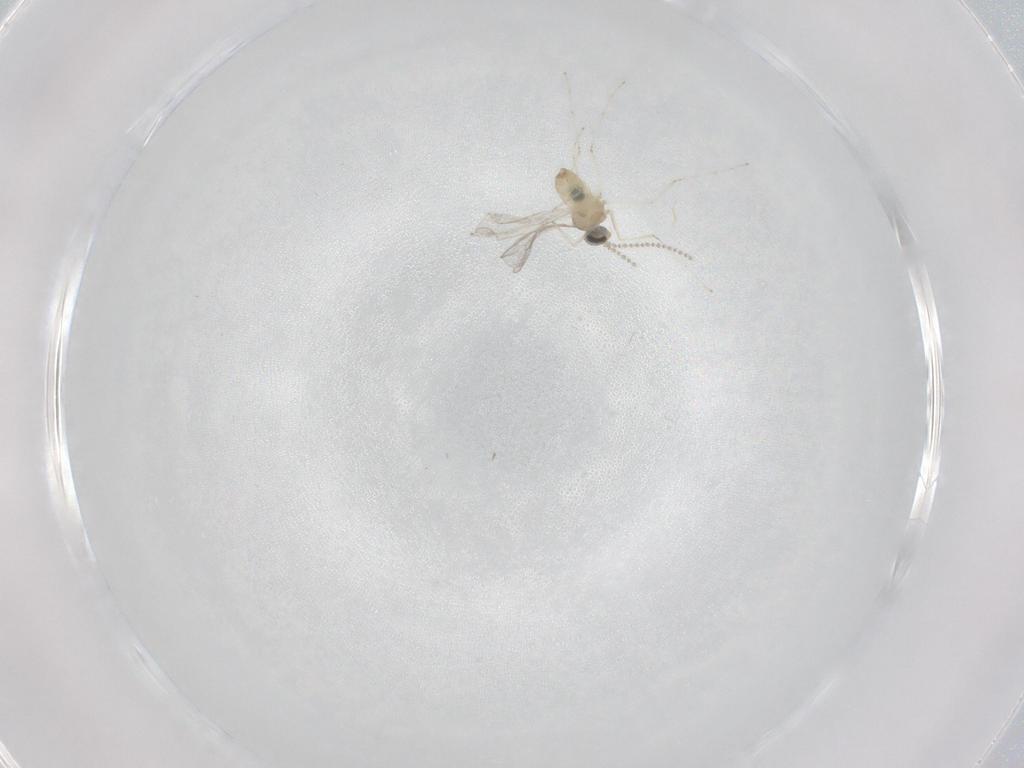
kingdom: Animalia
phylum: Arthropoda
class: Insecta
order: Diptera
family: Cecidomyiidae
